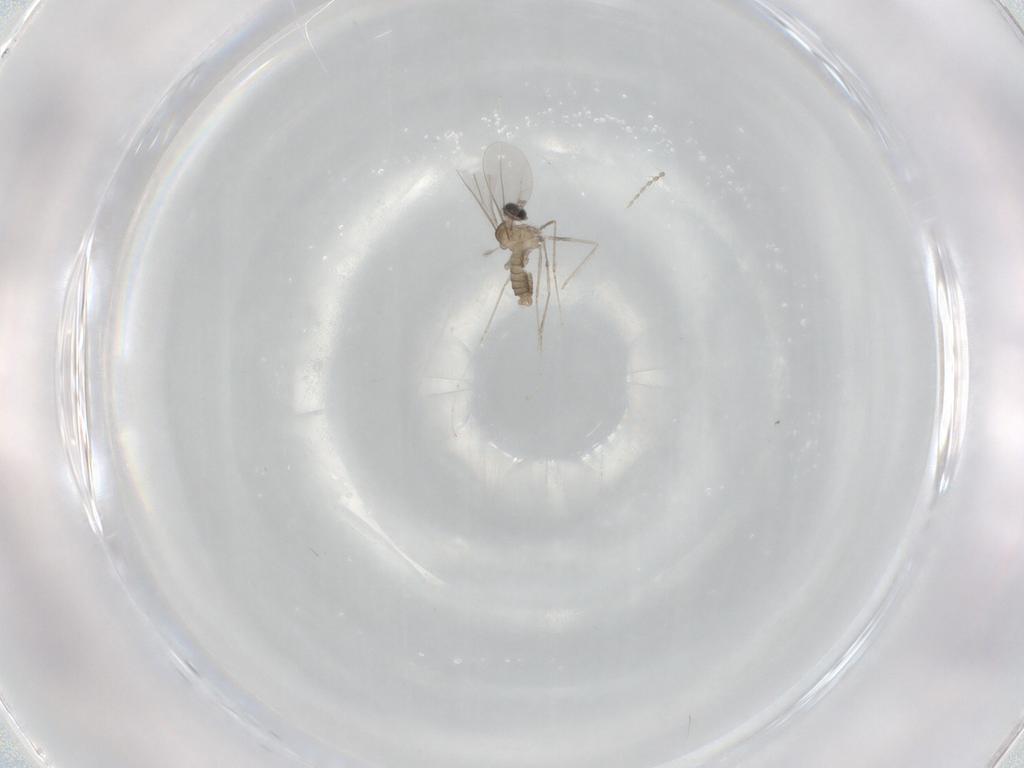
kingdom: Animalia
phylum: Arthropoda
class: Insecta
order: Diptera
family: Cecidomyiidae
